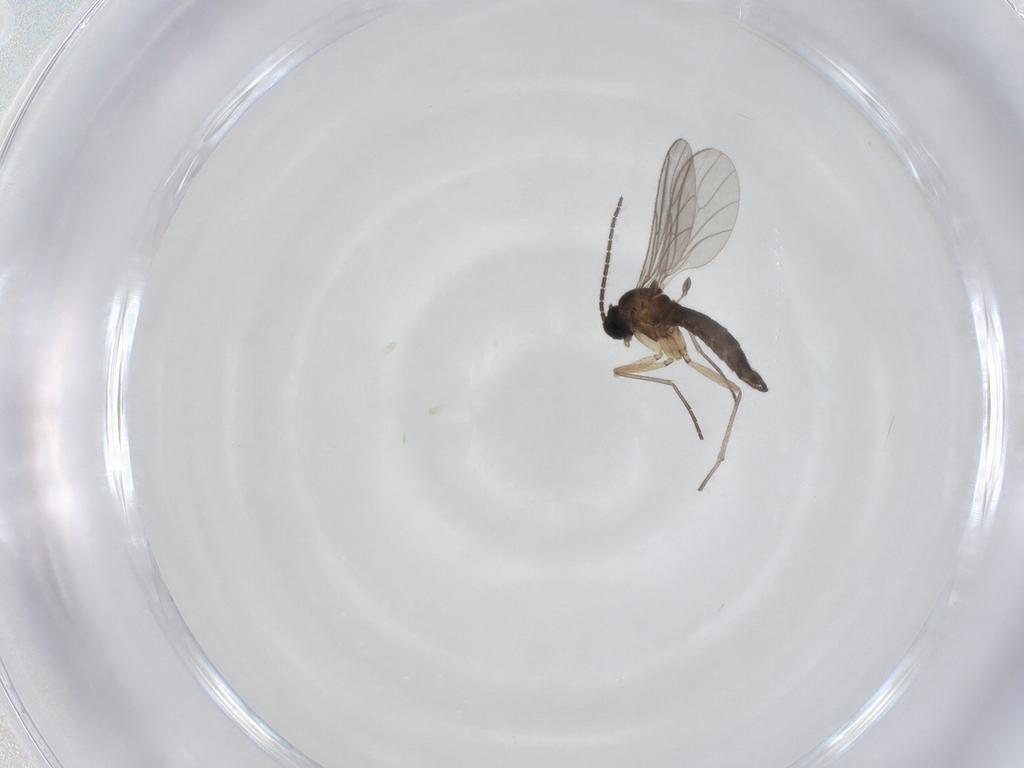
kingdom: Animalia
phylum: Arthropoda
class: Insecta
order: Diptera
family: Sciaridae
